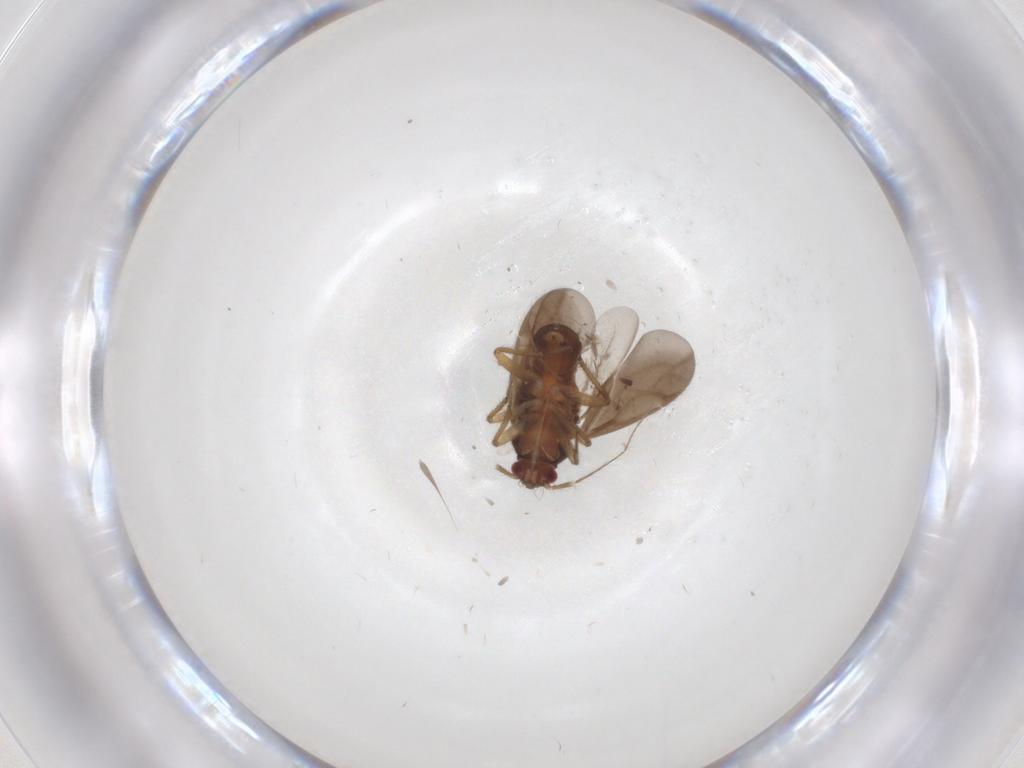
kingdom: Animalia
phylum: Arthropoda
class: Insecta
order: Hemiptera
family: Ceratocombidae
